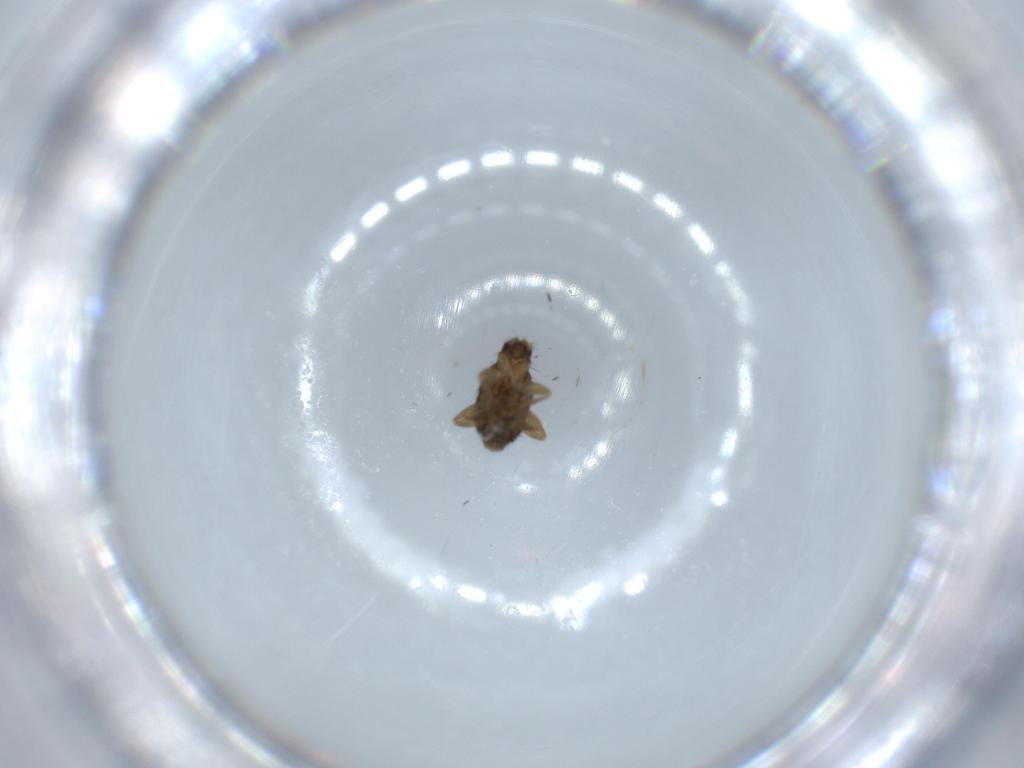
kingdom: Animalia
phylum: Arthropoda
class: Insecta
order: Diptera
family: Phoridae
